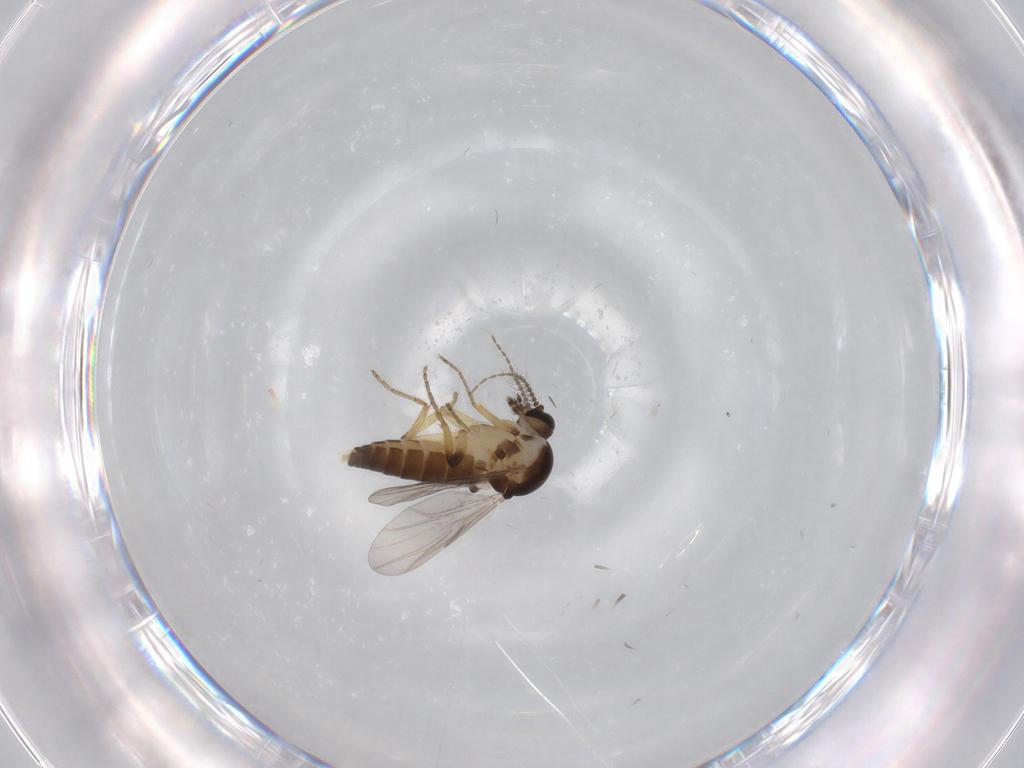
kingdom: Animalia
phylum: Arthropoda
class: Insecta
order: Diptera
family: Ceratopogonidae
